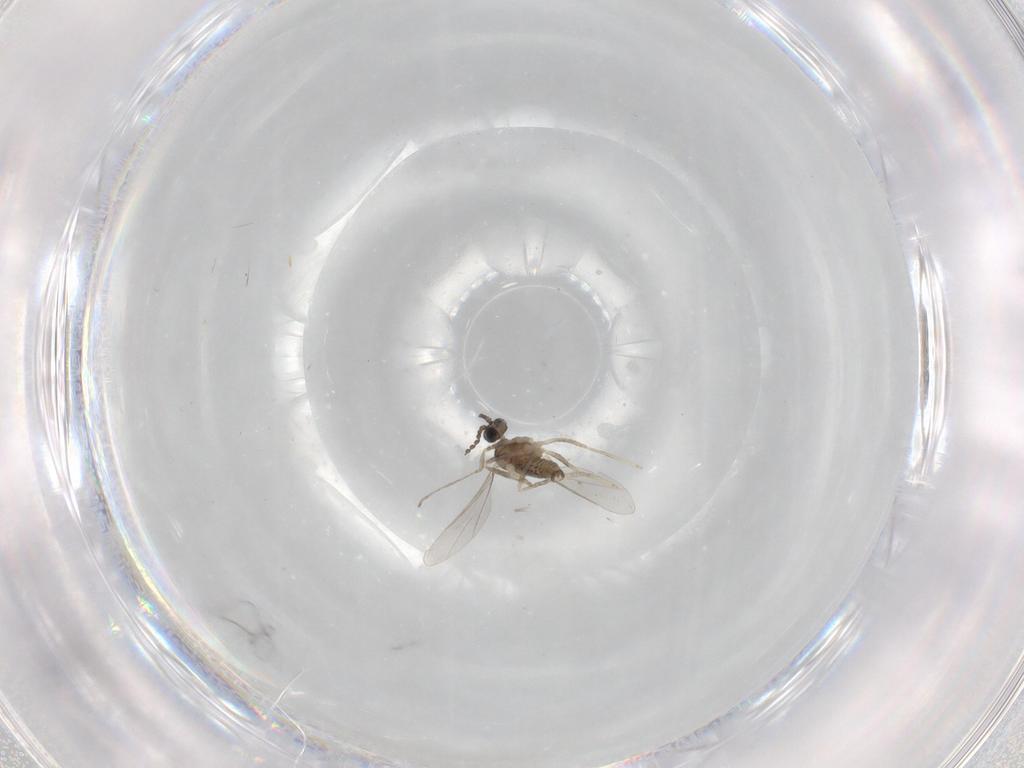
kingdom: Animalia
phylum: Arthropoda
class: Insecta
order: Diptera
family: Cecidomyiidae
